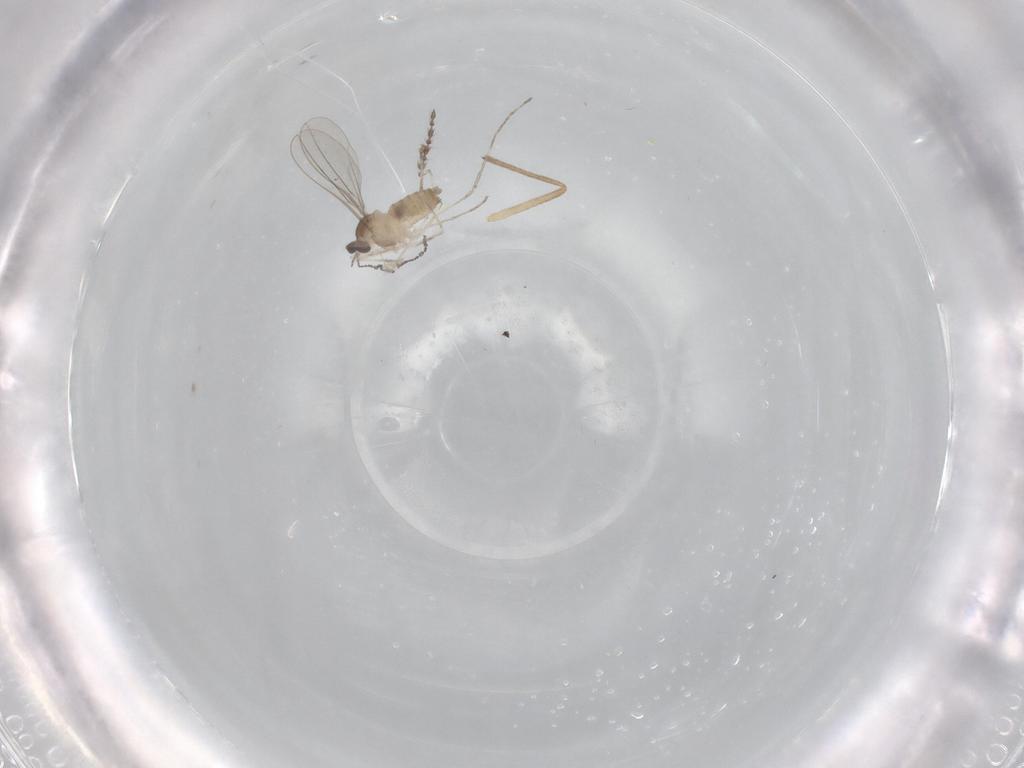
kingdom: Animalia
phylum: Arthropoda
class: Insecta
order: Diptera
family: Cecidomyiidae
